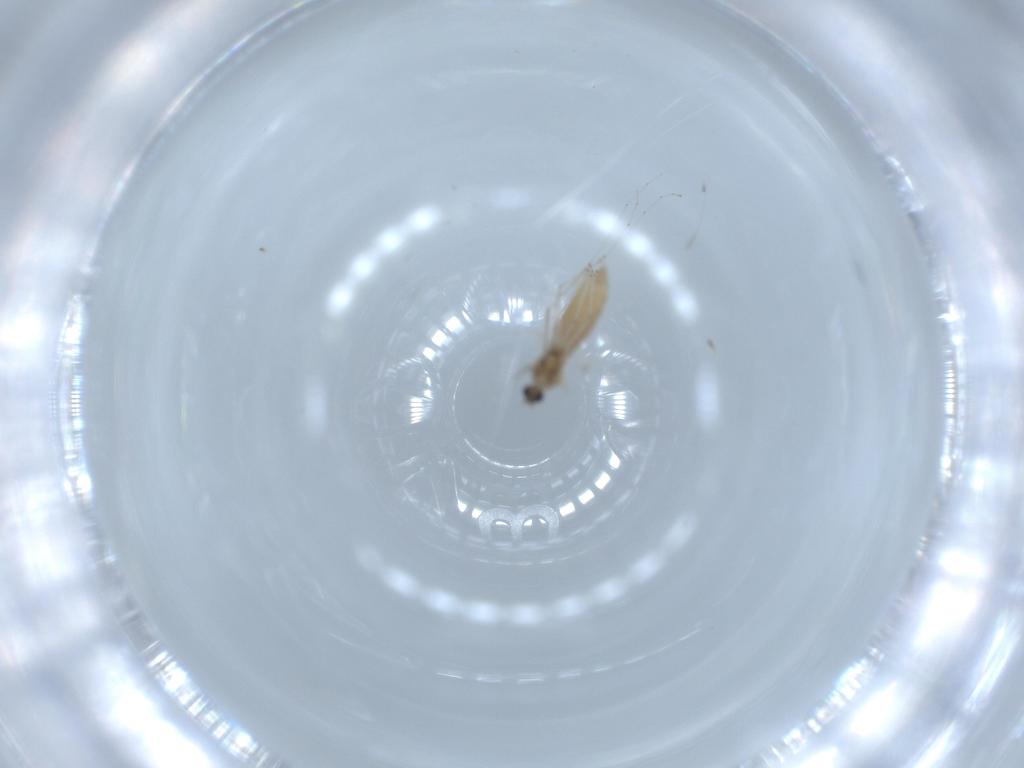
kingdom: Animalia
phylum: Arthropoda
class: Insecta
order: Diptera
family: Cecidomyiidae
